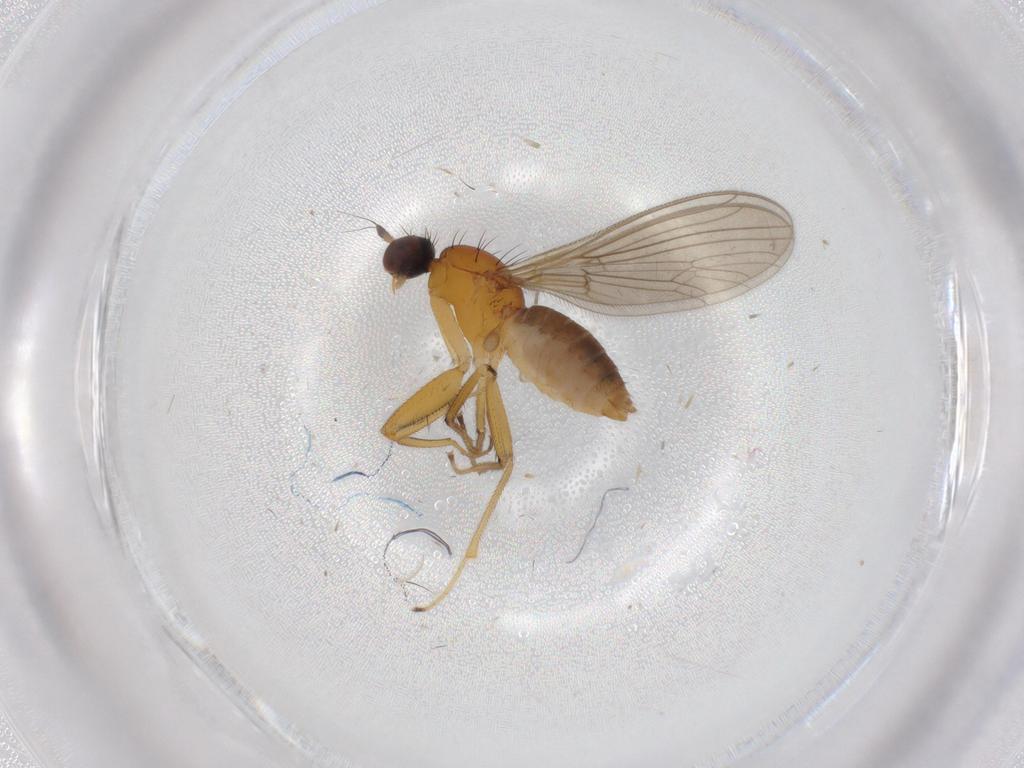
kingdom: Animalia
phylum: Arthropoda
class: Insecta
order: Diptera
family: Empididae
